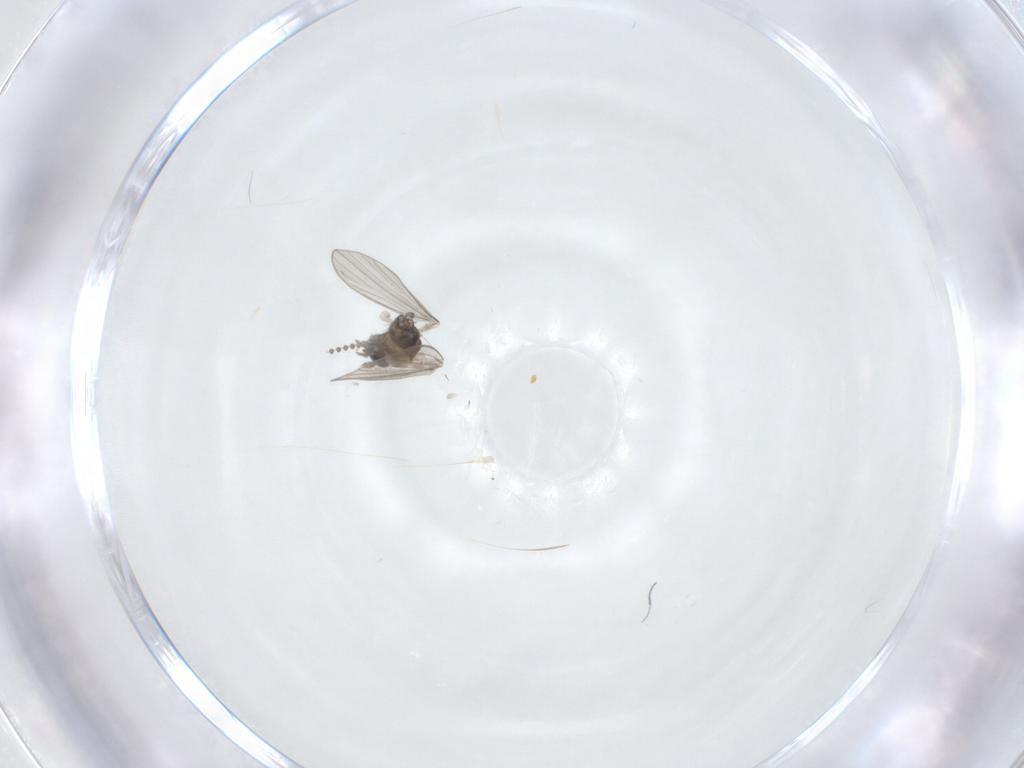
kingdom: Animalia
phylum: Arthropoda
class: Insecta
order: Diptera
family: Psychodidae
